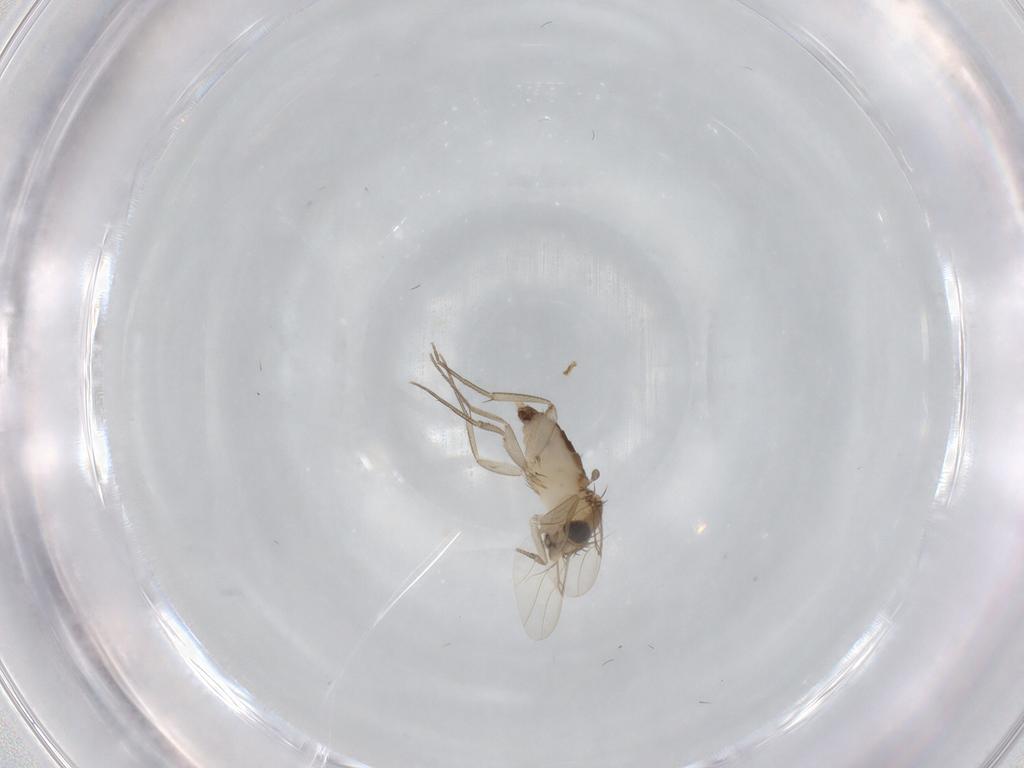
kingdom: Animalia
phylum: Arthropoda
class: Insecta
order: Diptera
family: Phoridae
